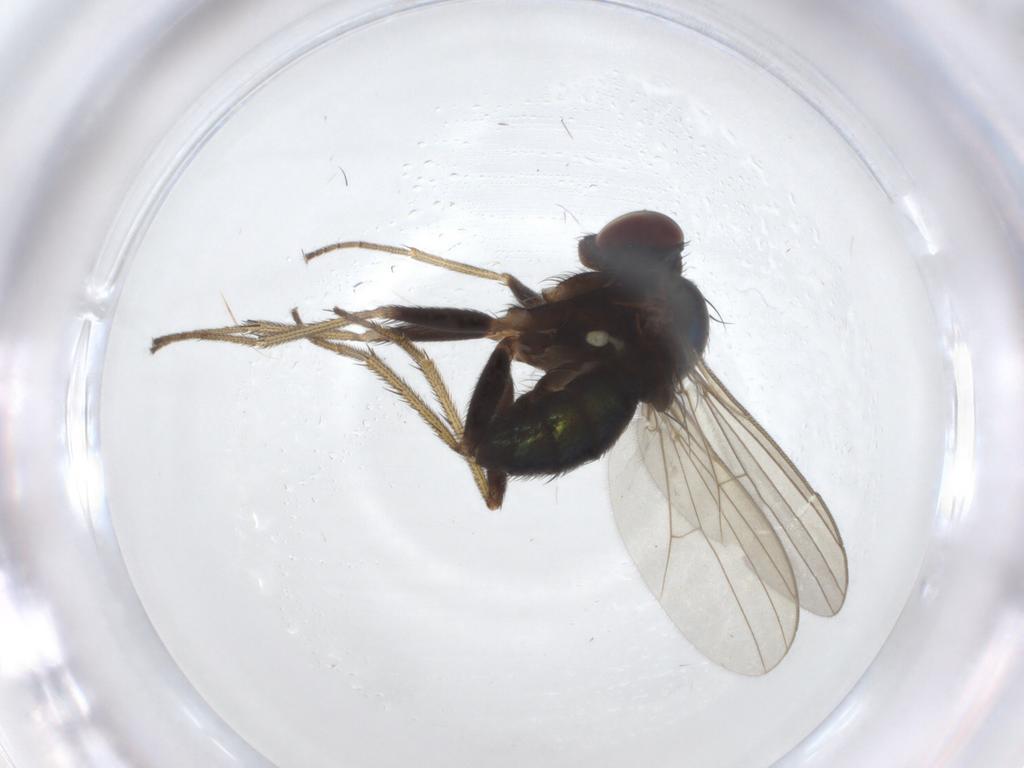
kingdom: Animalia
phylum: Arthropoda
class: Insecta
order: Diptera
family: Dolichopodidae
